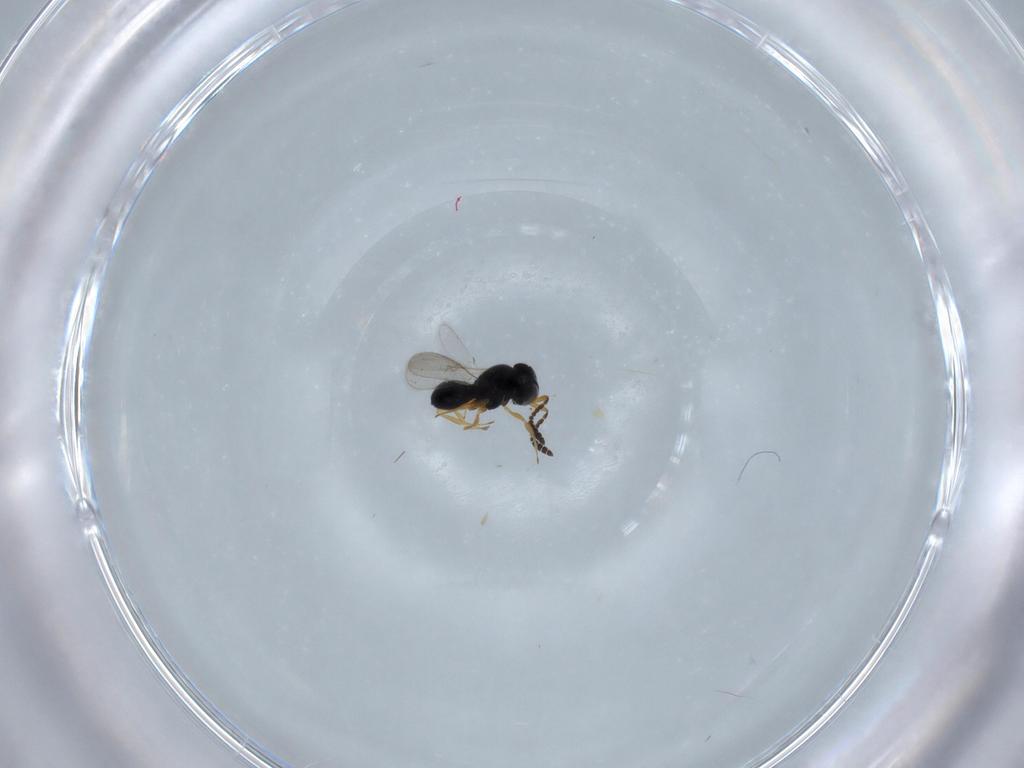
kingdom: Animalia
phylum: Arthropoda
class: Insecta
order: Hymenoptera
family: Scelionidae
